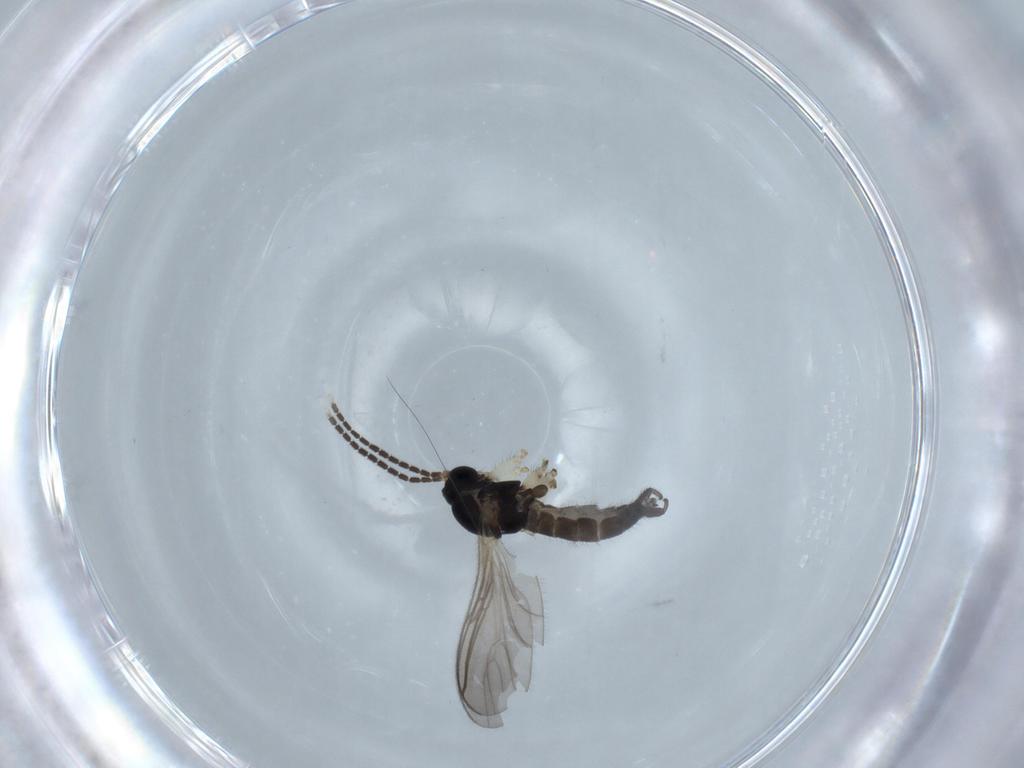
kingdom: Animalia
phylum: Arthropoda
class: Insecta
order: Diptera
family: Sciaridae
